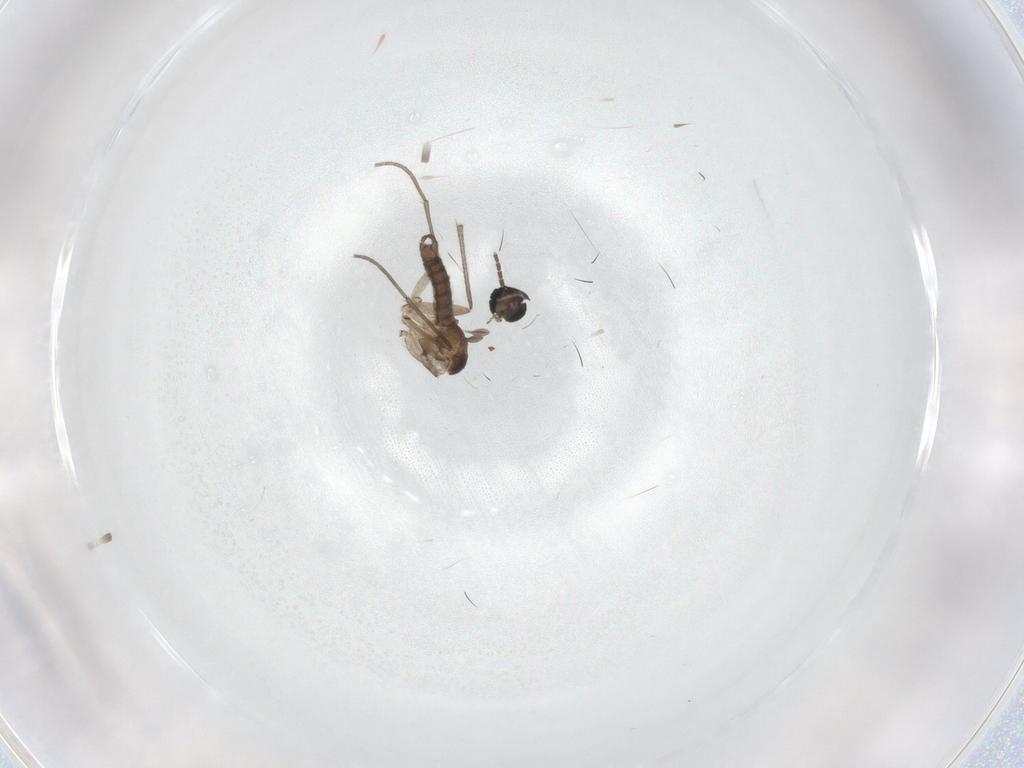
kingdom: Animalia
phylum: Arthropoda
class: Insecta
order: Diptera
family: Sciaridae
